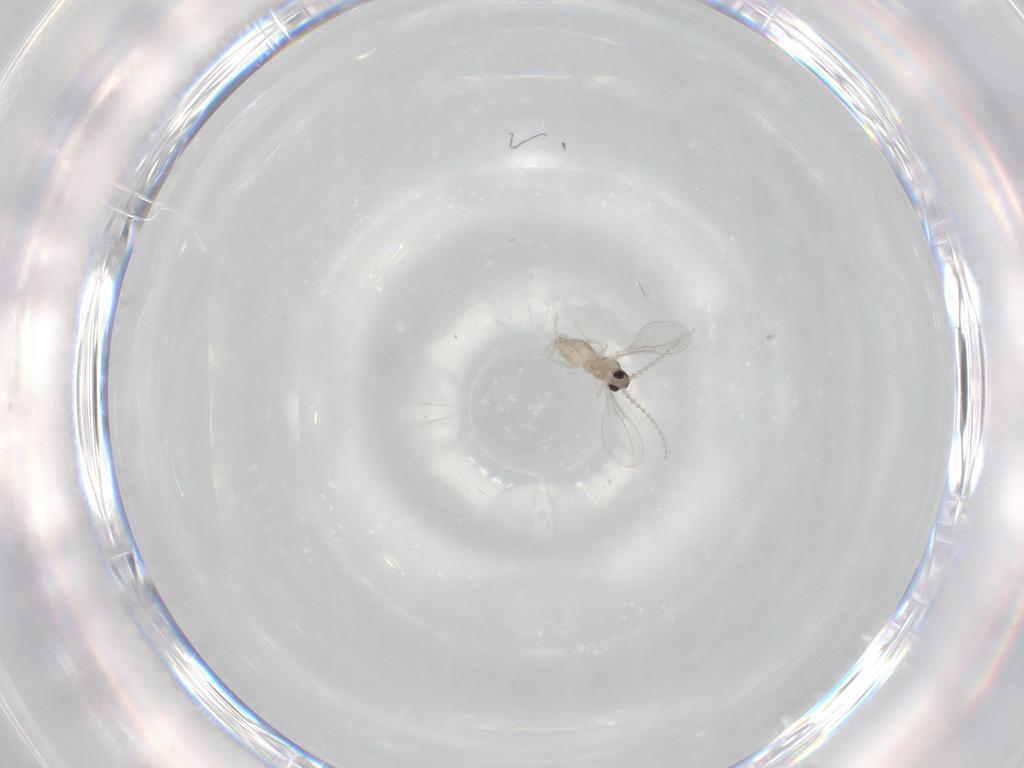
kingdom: Animalia
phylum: Arthropoda
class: Insecta
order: Diptera
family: Cecidomyiidae
